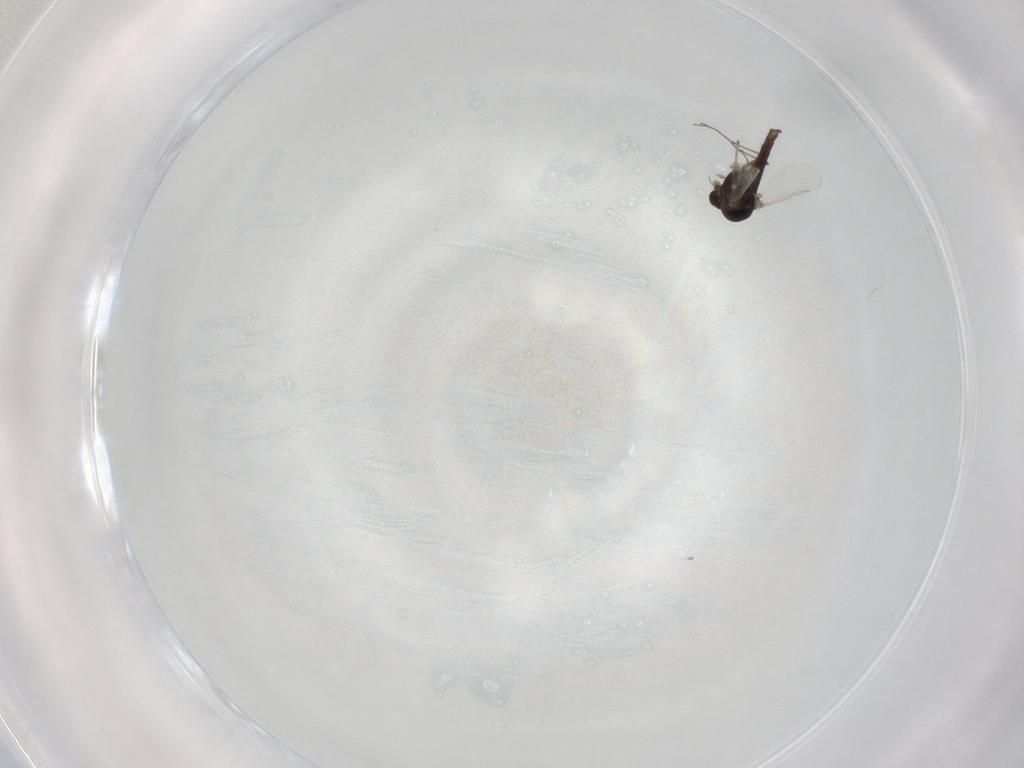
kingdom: Animalia
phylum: Arthropoda
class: Insecta
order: Diptera
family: Chironomidae
